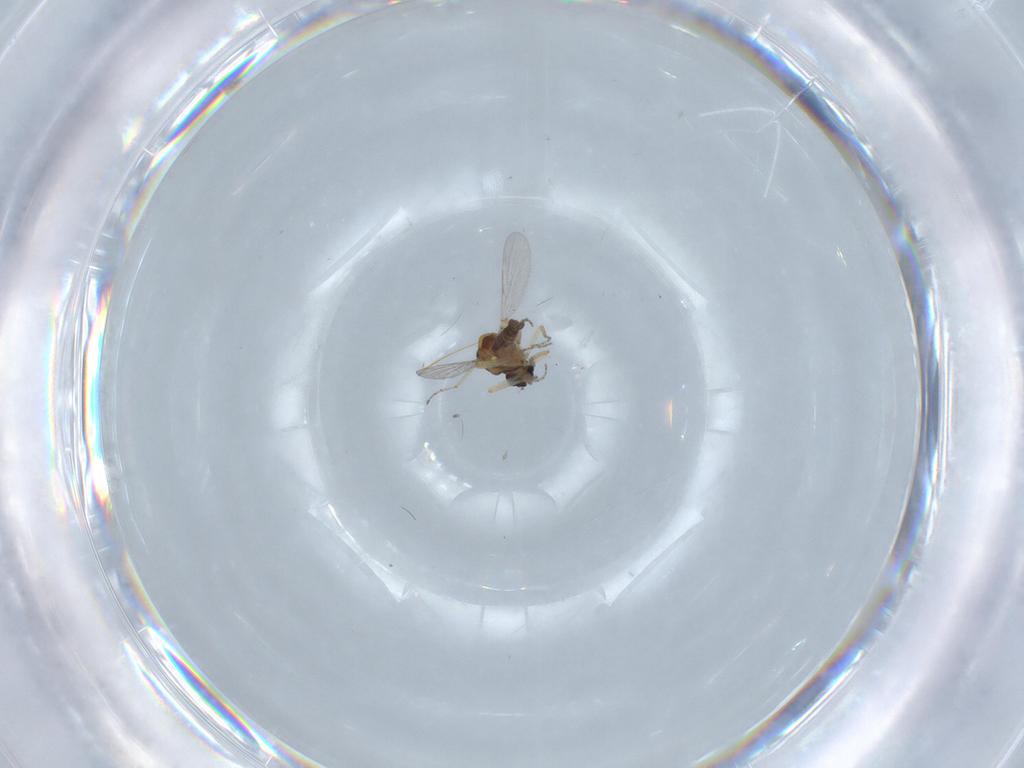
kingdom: Animalia
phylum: Arthropoda
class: Insecta
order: Diptera
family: Ceratopogonidae
